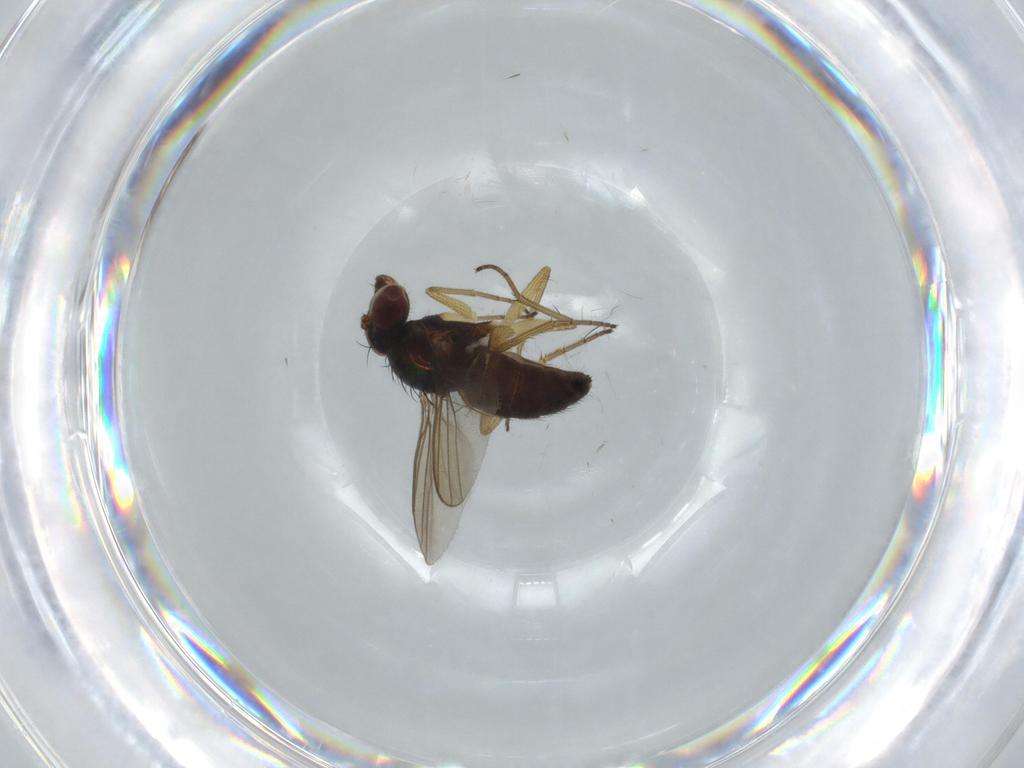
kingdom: Animalia
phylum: Arthropoda
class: Insecta
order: Diptera
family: Dolichopodidae
